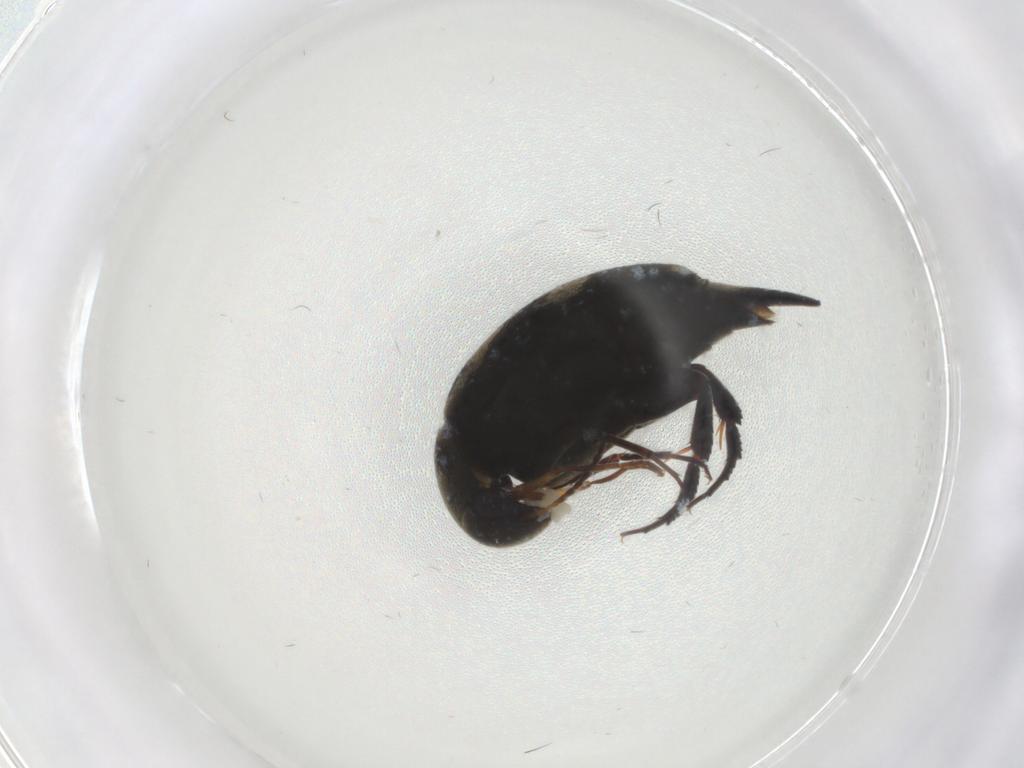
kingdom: Animalia
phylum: Arthropoda
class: Insecta
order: Coleoptera
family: Mordellidae
